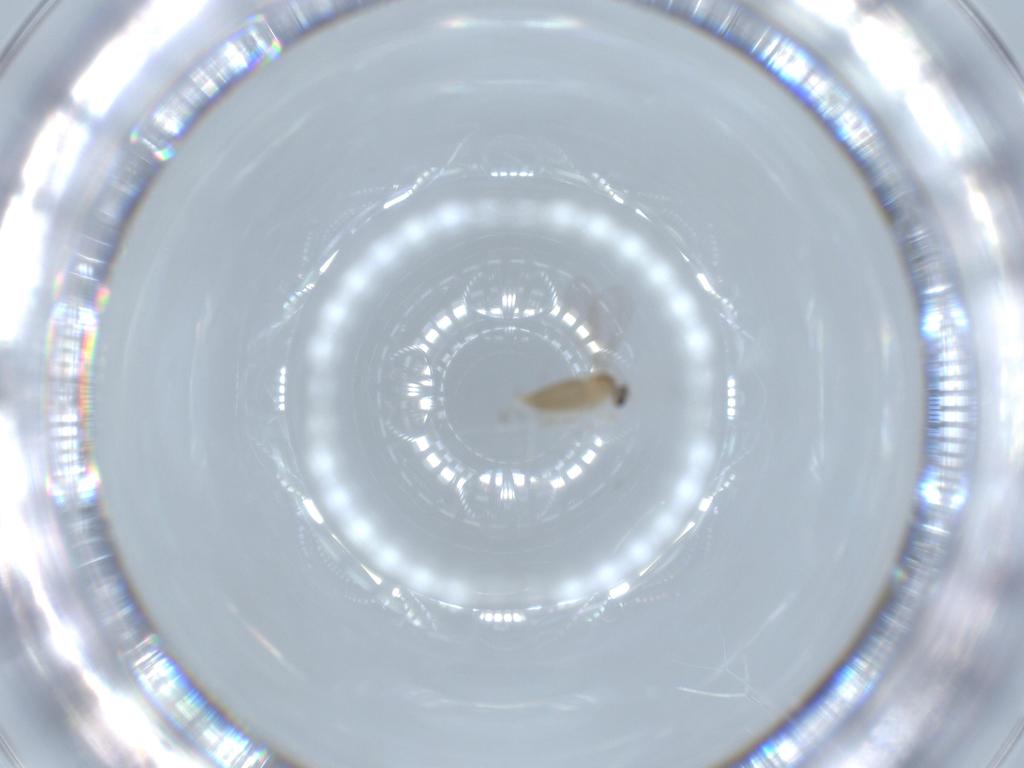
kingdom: Animalia
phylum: Arthropoda
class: Insecta
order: Diptera
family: Cecidomyiidae
